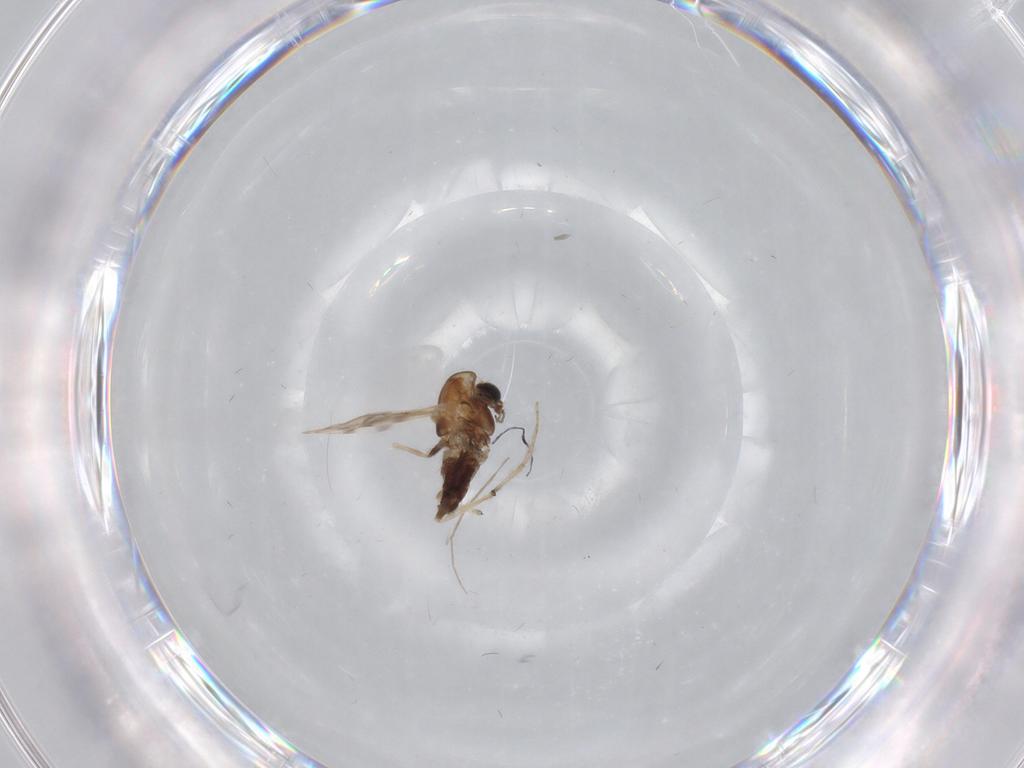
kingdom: Animalia
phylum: Arthropoda
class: Insecta
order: Diptera
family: Chironomidae
